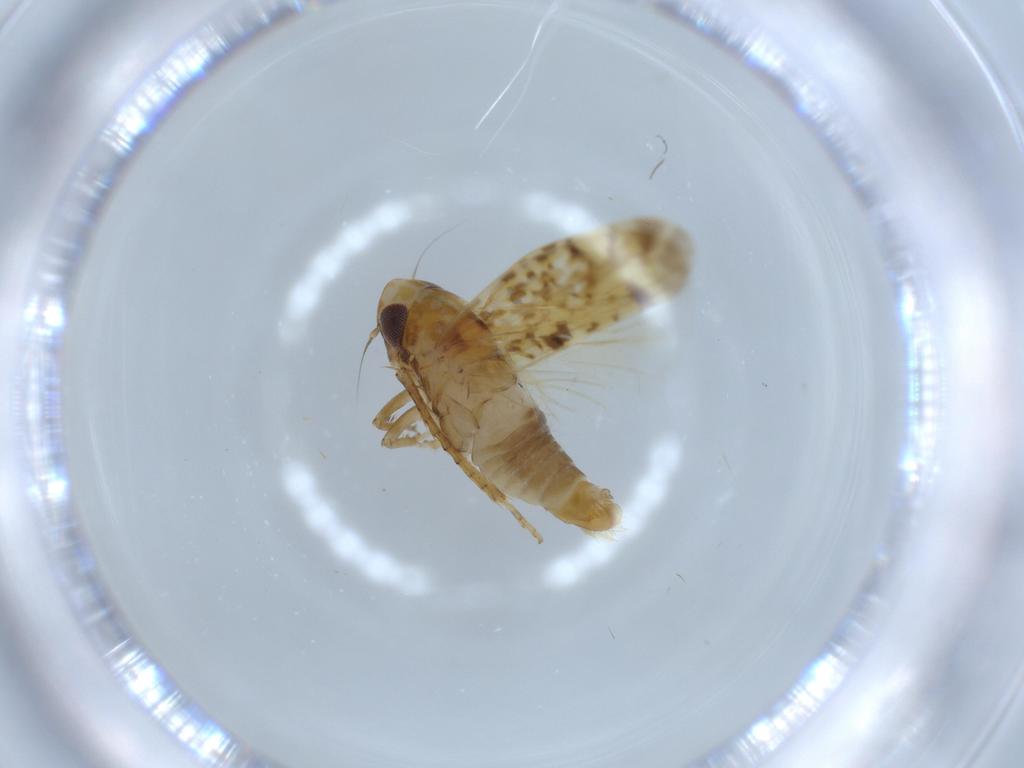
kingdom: Animalia
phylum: Arthropoda
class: Insecta
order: Hemiptera
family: Cicadellidae
